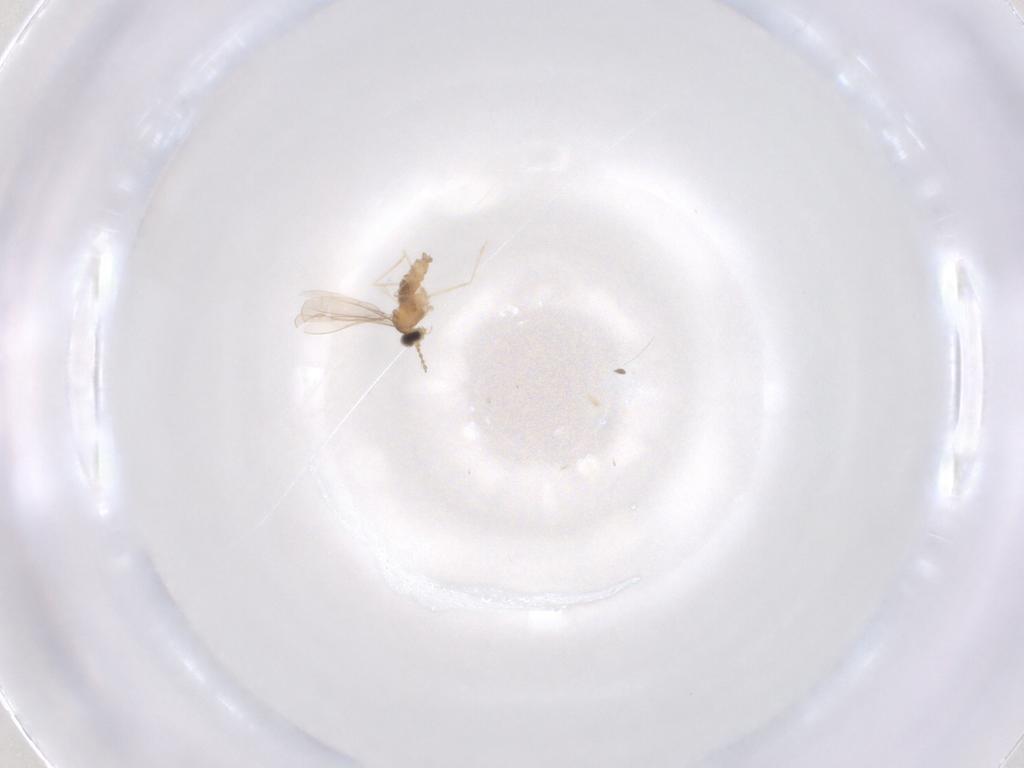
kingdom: Animalia
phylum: Arthropoda
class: Insecta
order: Diptera
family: Cecidomyiidae
